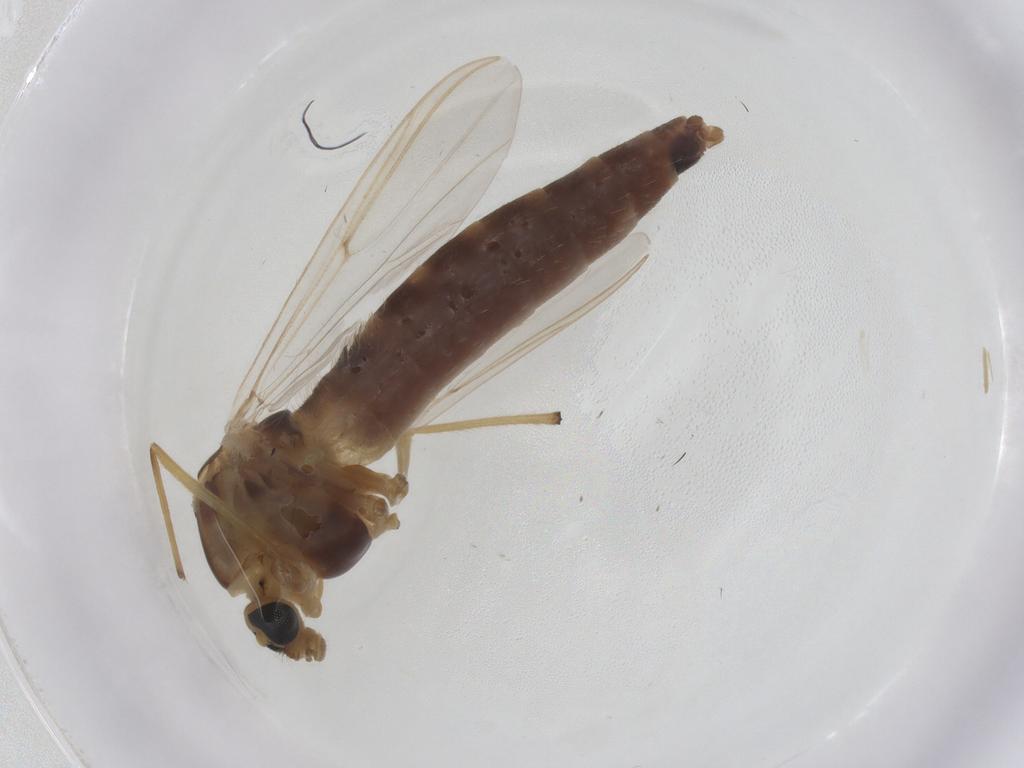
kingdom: Animalia
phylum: Arthropoda
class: Insecta
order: Diptera
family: Chironomidae
